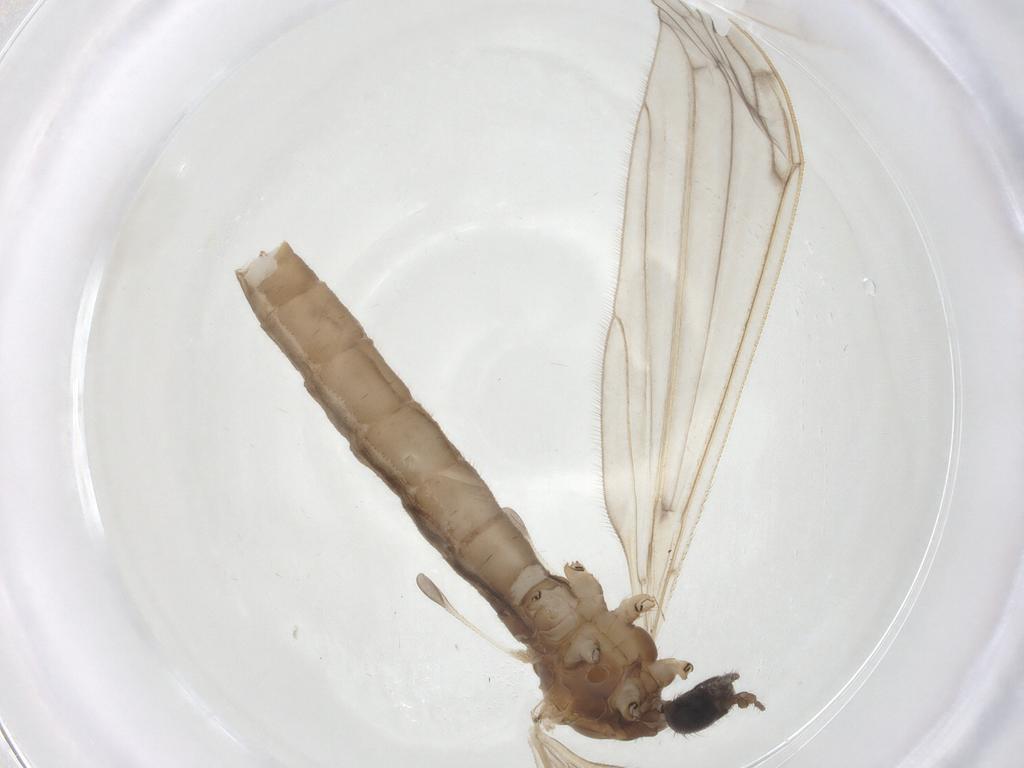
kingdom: Animalia
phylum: Arthropoda
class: Insecta
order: Diptera
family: Limoniidae
